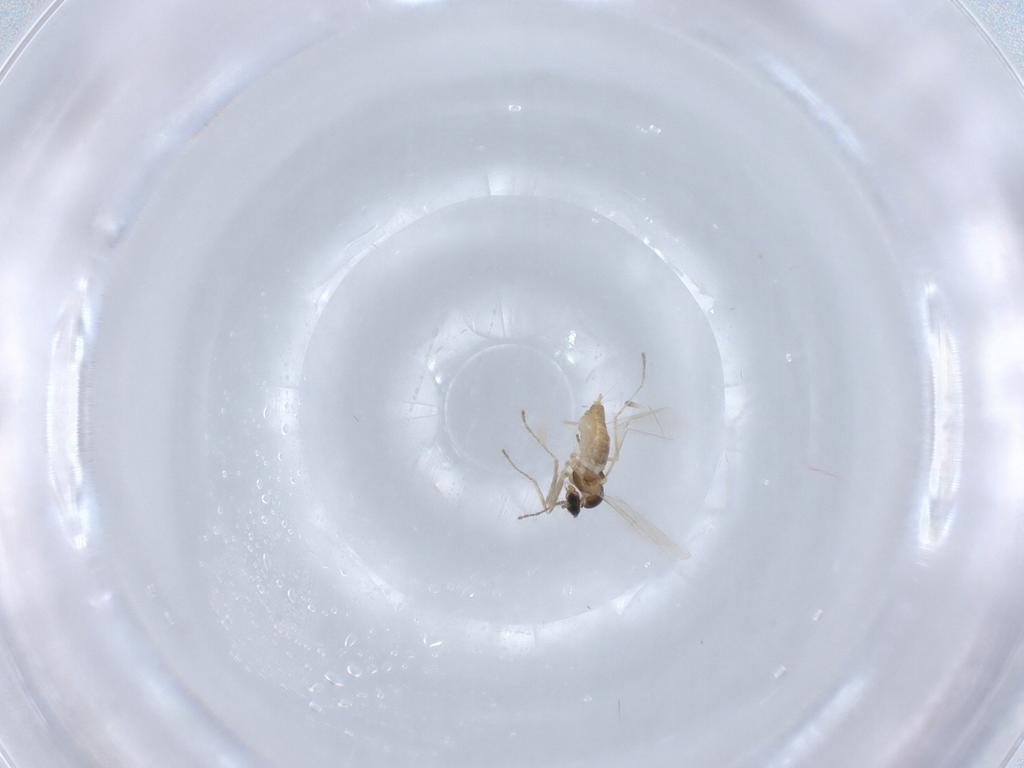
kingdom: Animalia
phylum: Arthropoda
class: Insecta
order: Diptera
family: Cecidomyiidae
